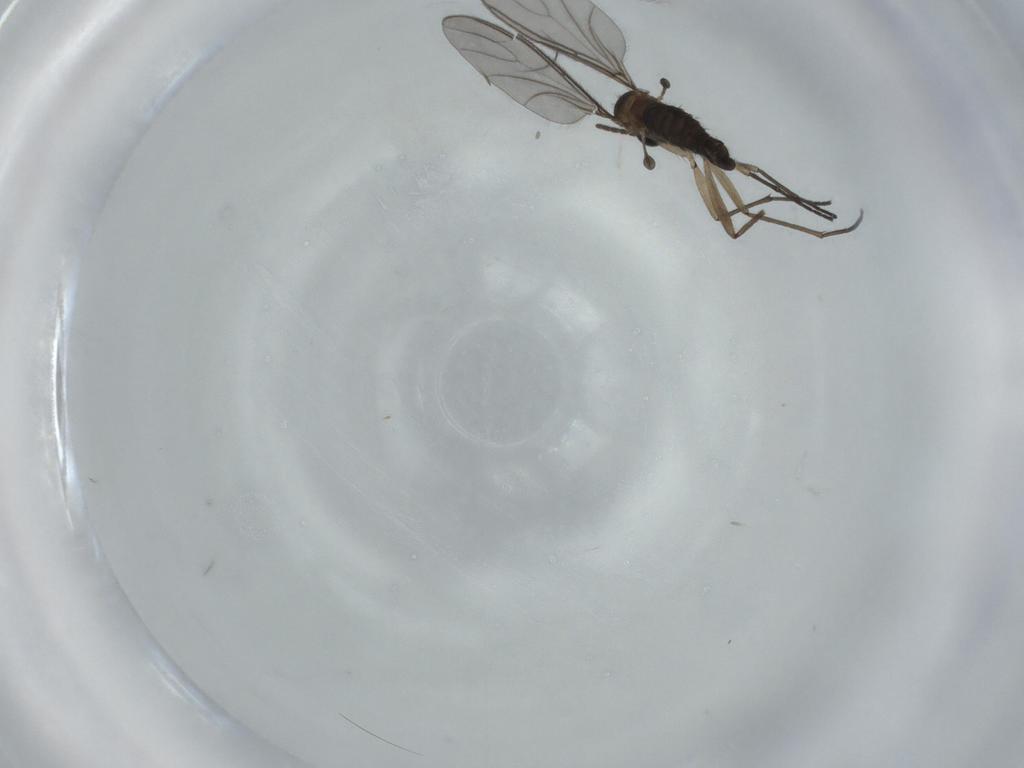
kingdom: Animalia
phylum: Arthropoda
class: Insecta
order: Diptera
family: Sciaridae
